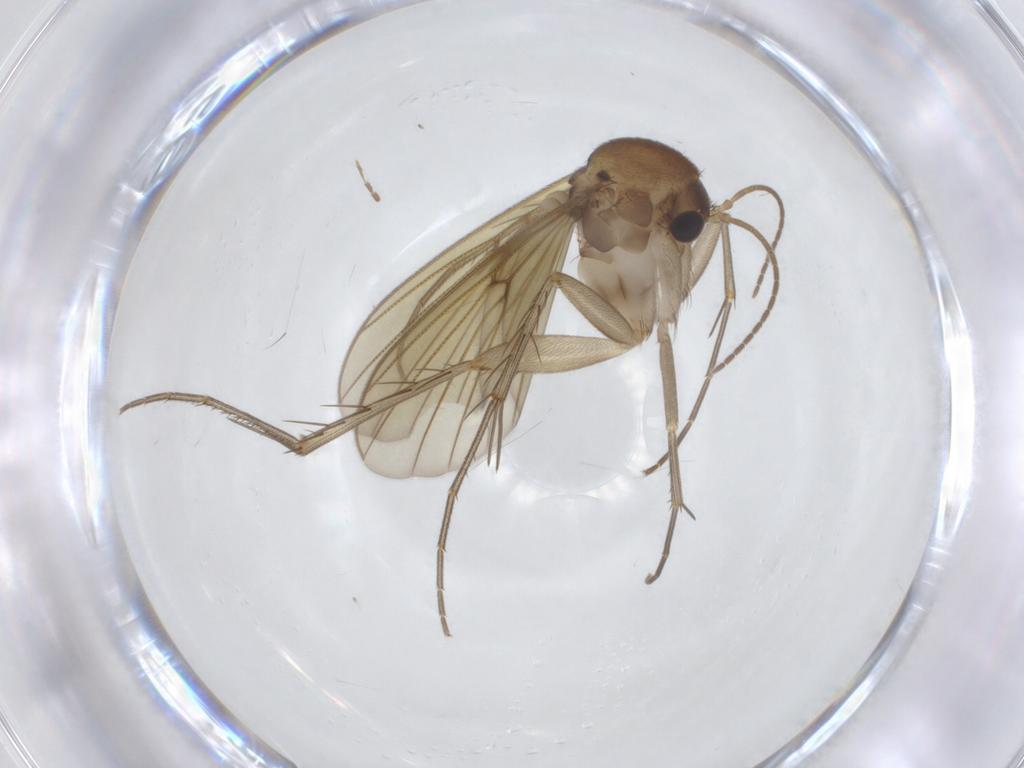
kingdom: Animalia
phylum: Arthropoda
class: Insecta
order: Diptera
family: Mycetophilidae
